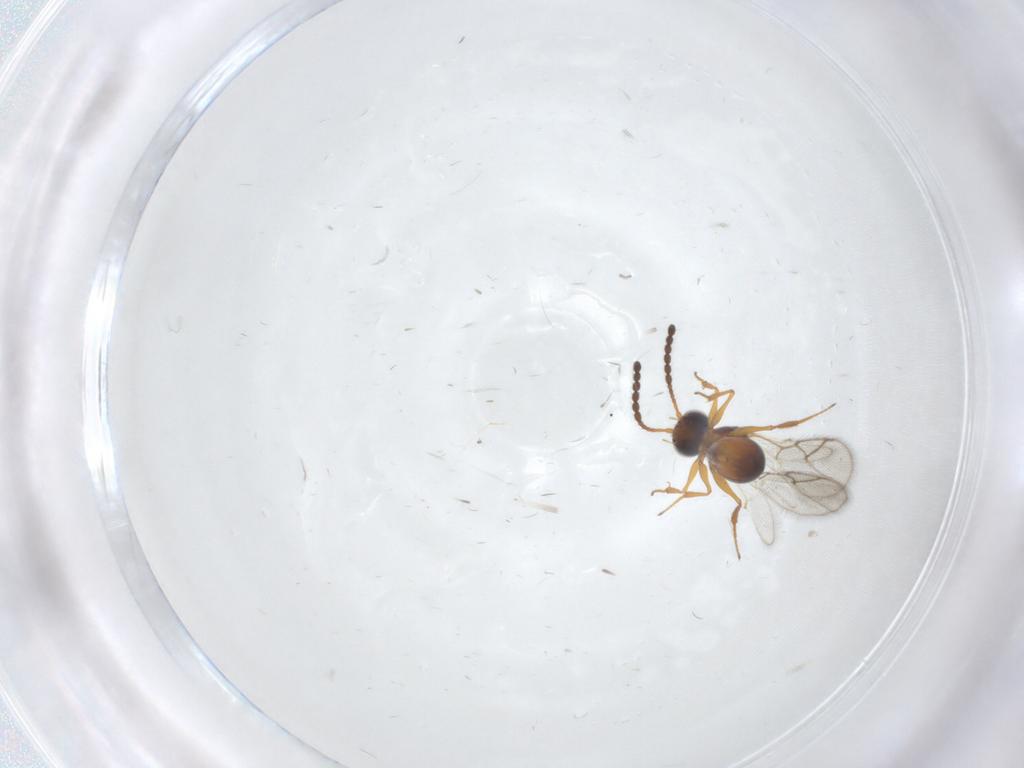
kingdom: Animalia
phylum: Arthropoda
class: Insecta
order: Hymenoptera
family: Figitidae
